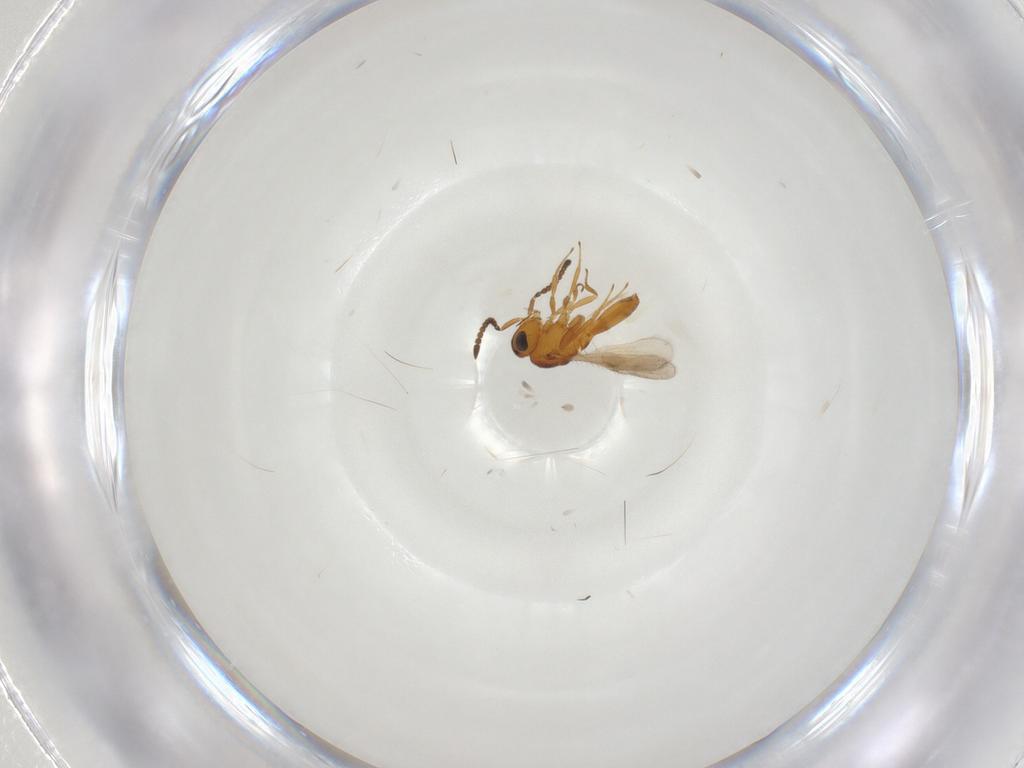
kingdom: Animalia
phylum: Arthropoda
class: Insecta
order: Hymenoptera
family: Scelionidae
